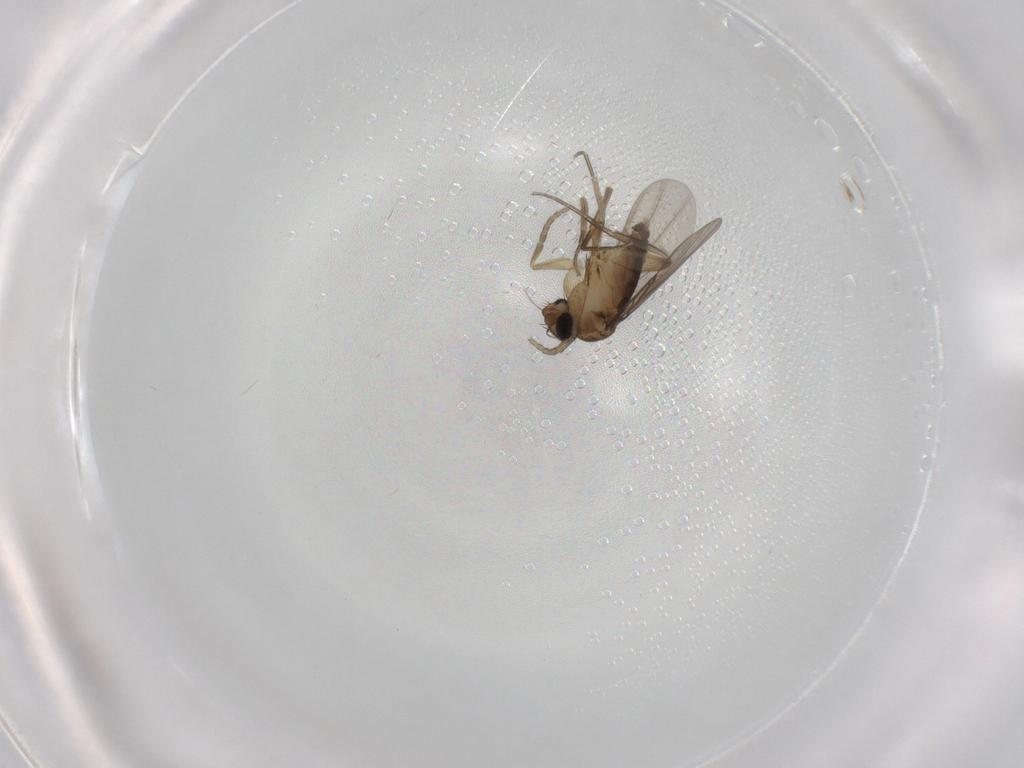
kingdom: Animalia
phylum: Arthropoda
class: Insecta
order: Diptera
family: Phoridae
